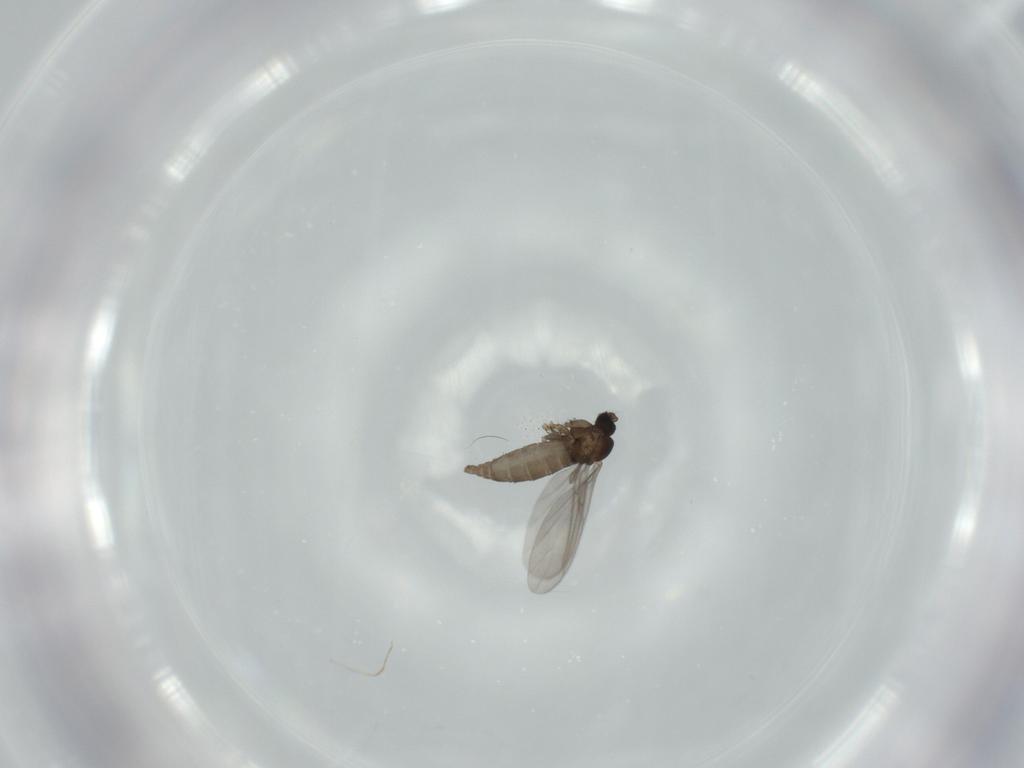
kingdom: Animalia
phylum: Arthropoda
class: Insecta
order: Diptera
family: Sciaridae
